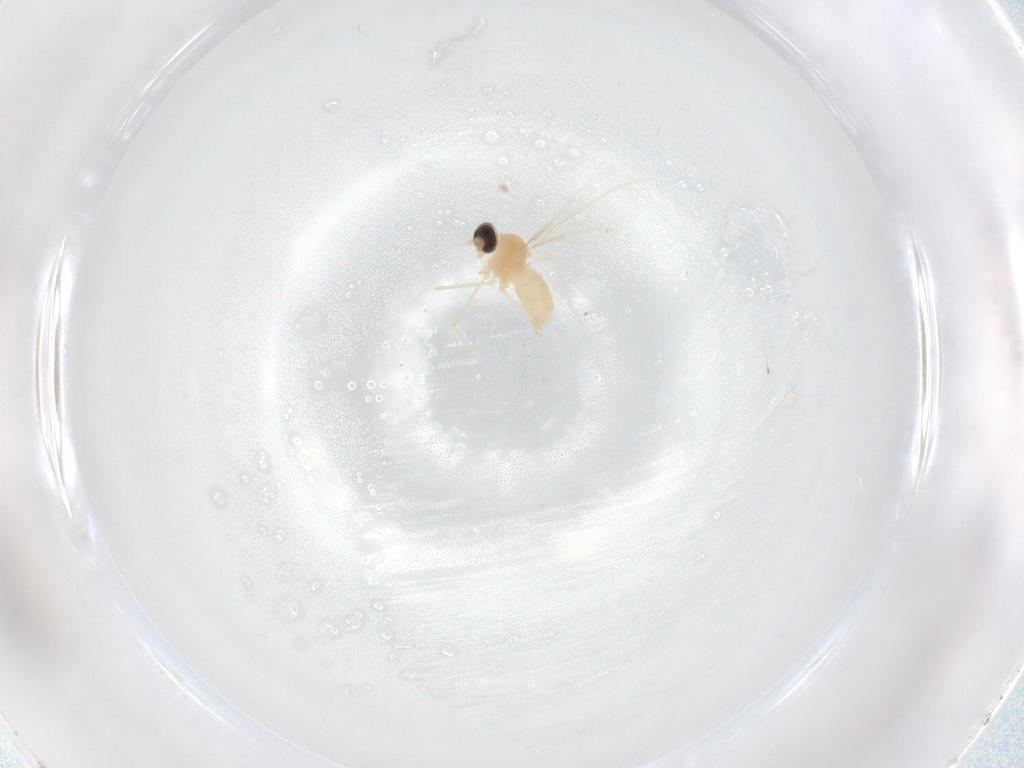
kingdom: Animalia
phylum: Arthropoda
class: Insecta
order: Diptera
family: Cecidomyiidae
